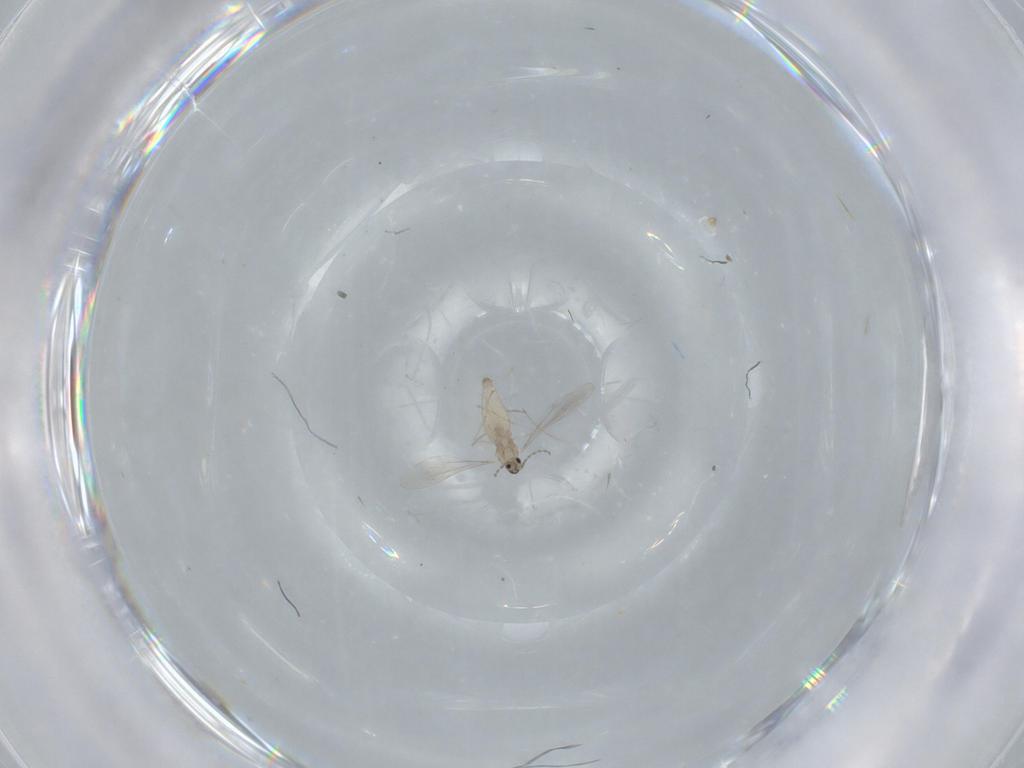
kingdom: Animalia
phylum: Arthropoda
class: Insecta
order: Diptera
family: Cecidomyiidae
